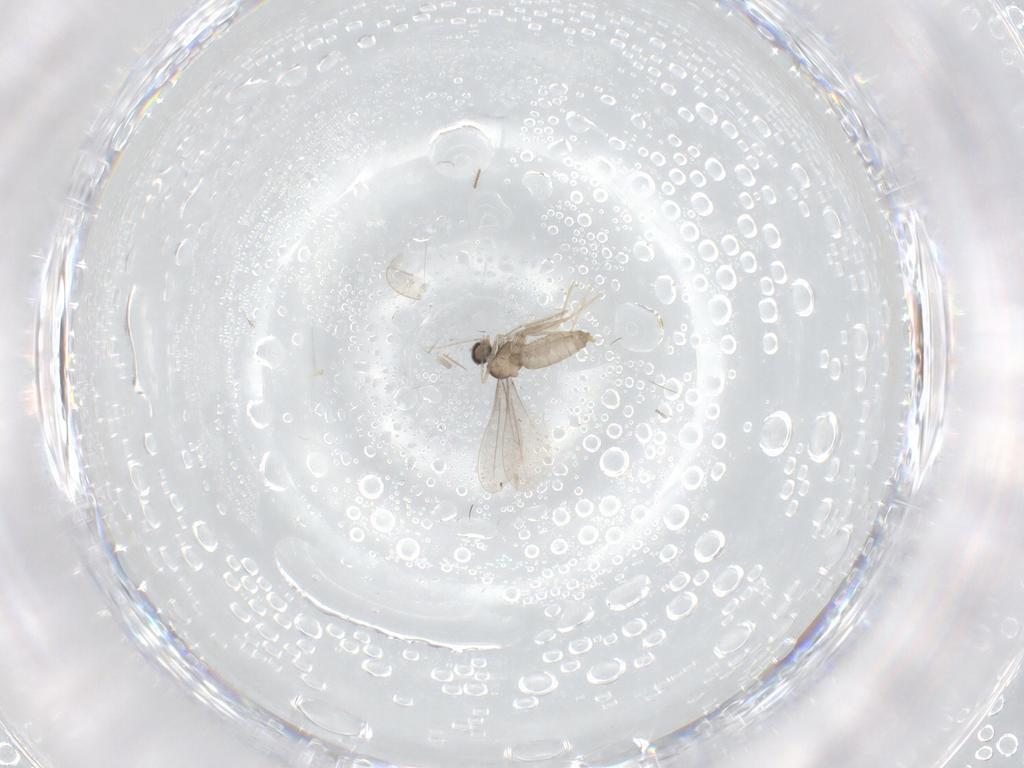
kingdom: Animalia
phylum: Arthropoda
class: Insecta
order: Diptera
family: Cecidomyiidae
